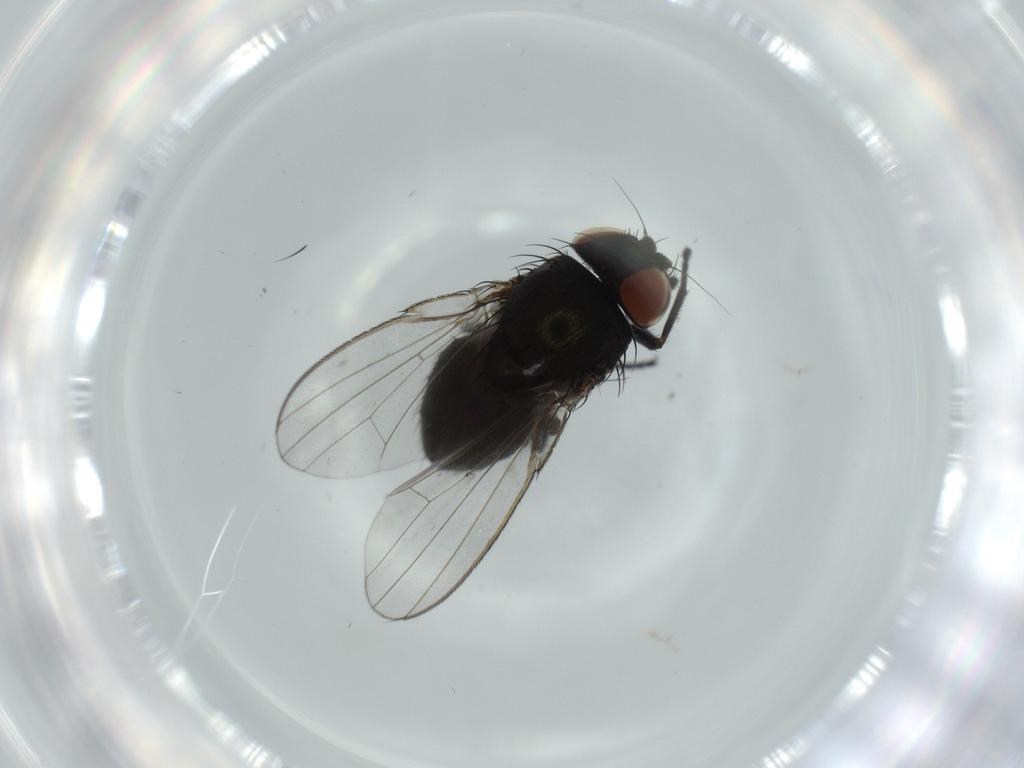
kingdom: Animalia
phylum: Arthropoda
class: Insecta
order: Diptera
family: Milichiidae
